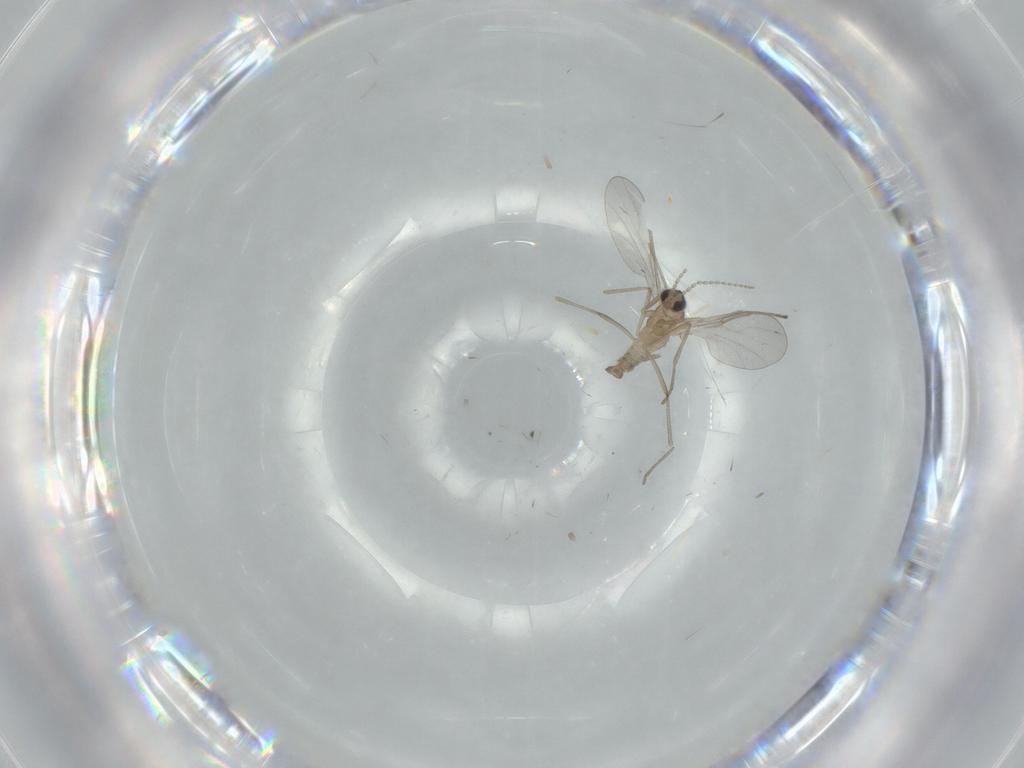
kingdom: Animalia
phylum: Arthropoda
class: Insecta
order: Diptera
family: Cecidomyiidae
